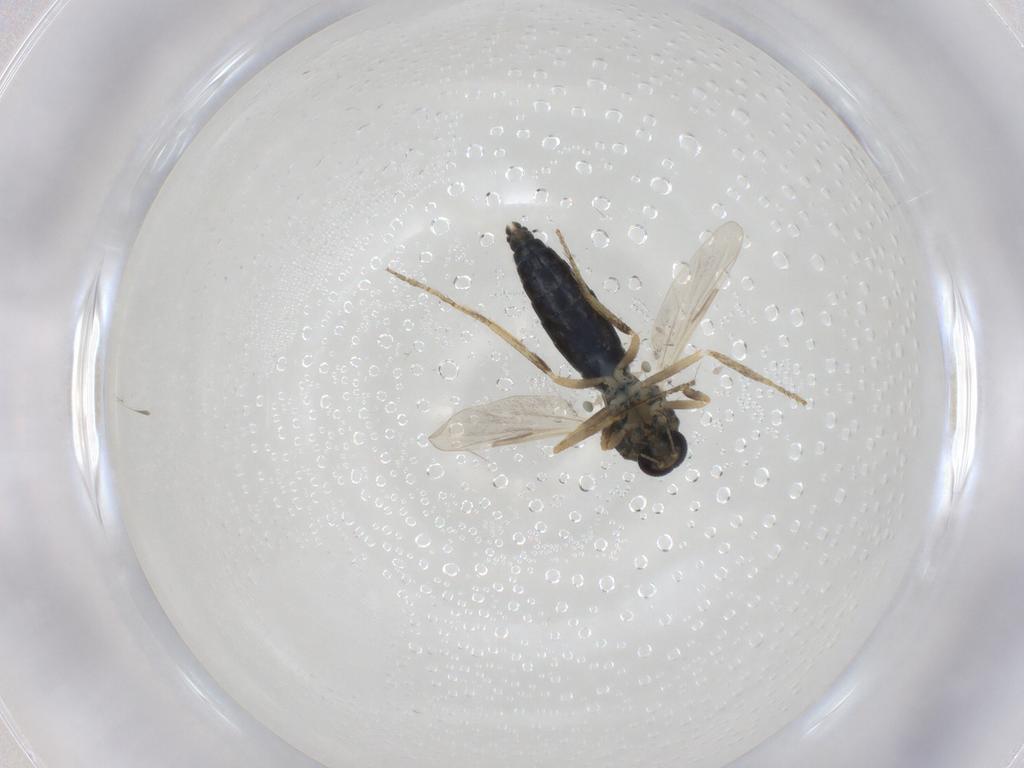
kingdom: Animalia
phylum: Arthropoda
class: Insecta
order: Diptera
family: Ceratopogonidae
